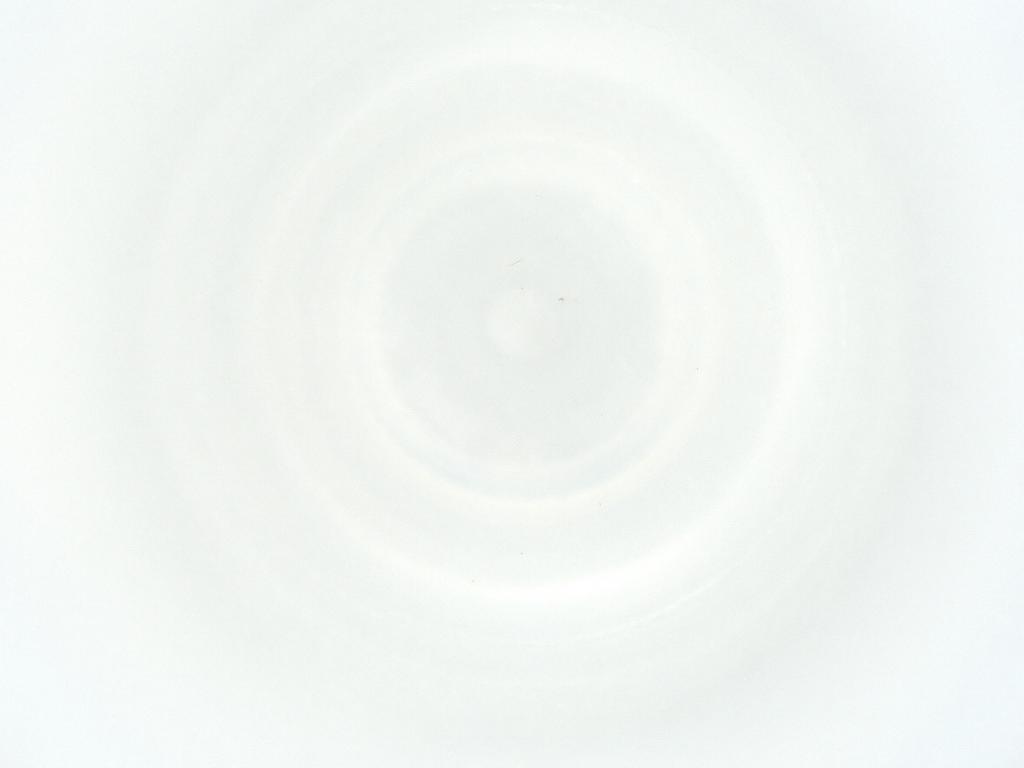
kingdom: Animalia
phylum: Arthropoda
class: Arachnida
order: Mesostigmata
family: Phytoseiidae
